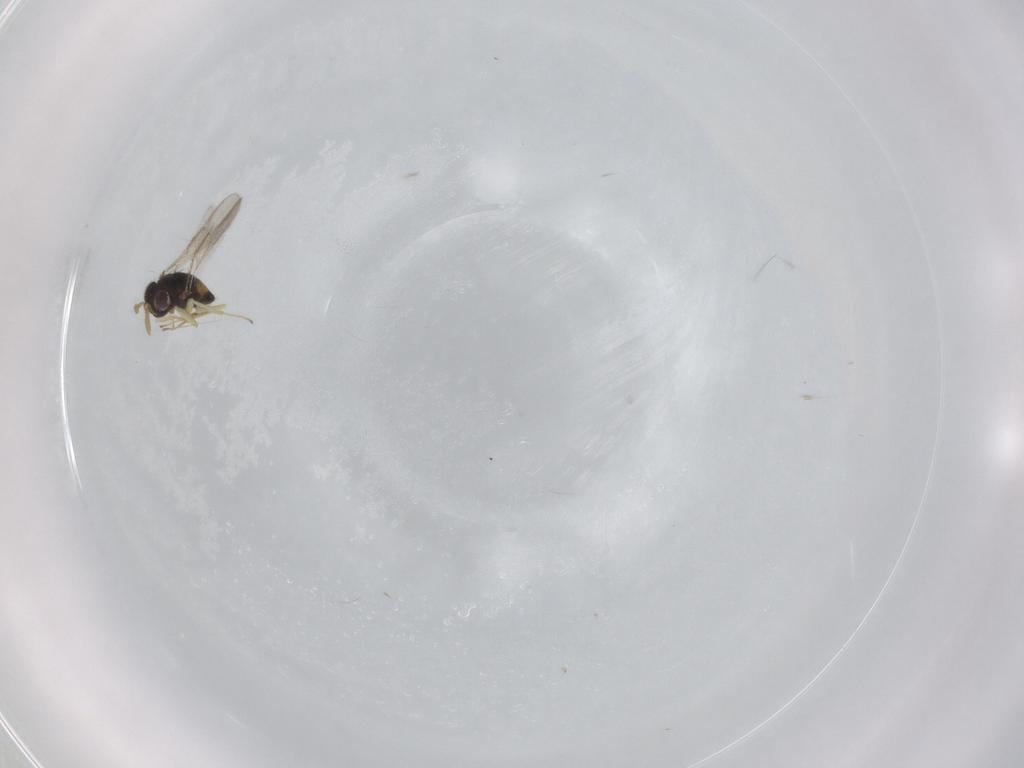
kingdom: Animalia
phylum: Arthropoda
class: Insecta
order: Hymenoptera
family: Aphelinidae
